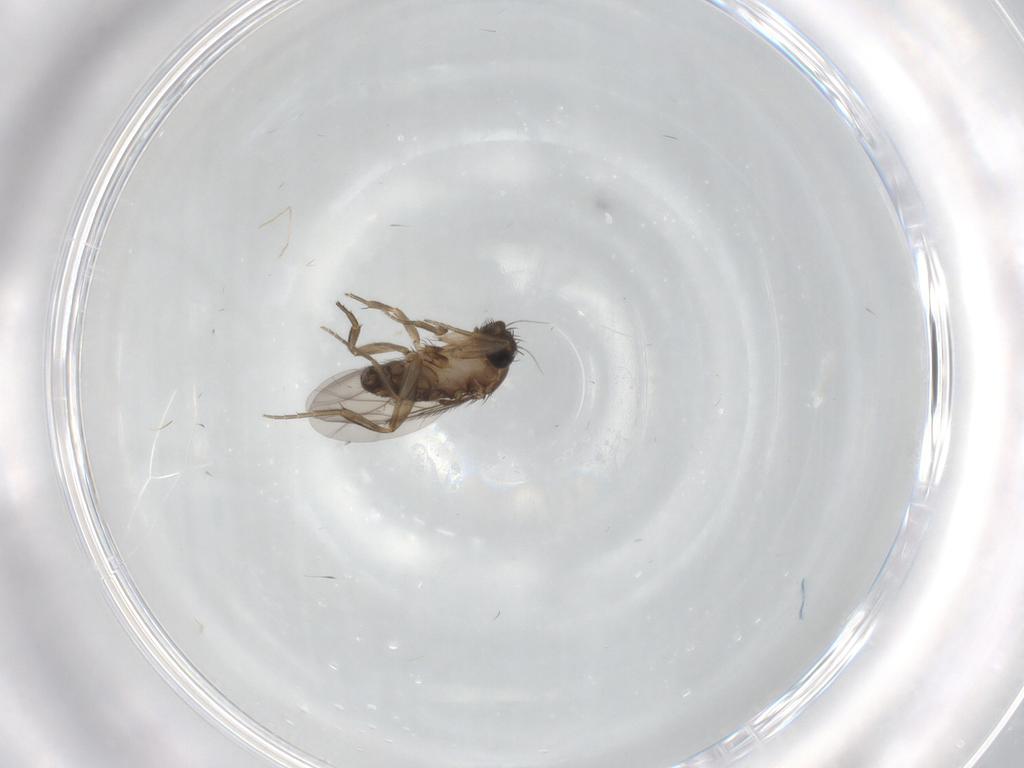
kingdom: Animalia
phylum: Arthropoda
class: Insecta
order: Diptera
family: Phoridae
